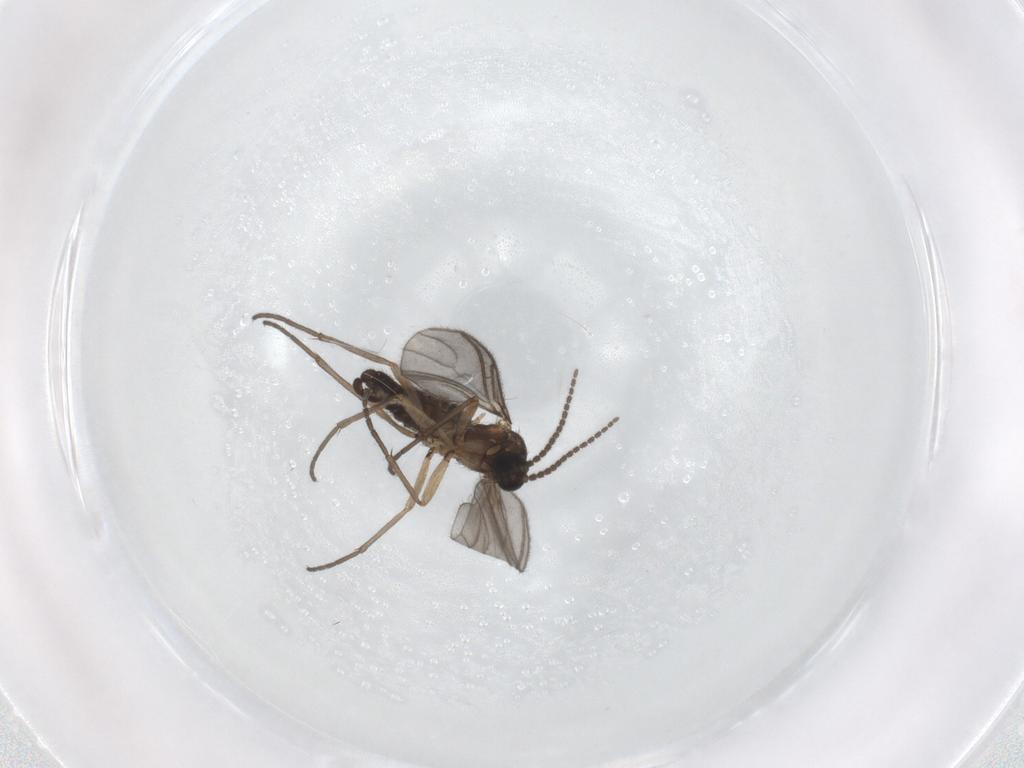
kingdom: Animalia
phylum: Arthropoda
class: Insecta
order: Diptera
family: Sciaridae
